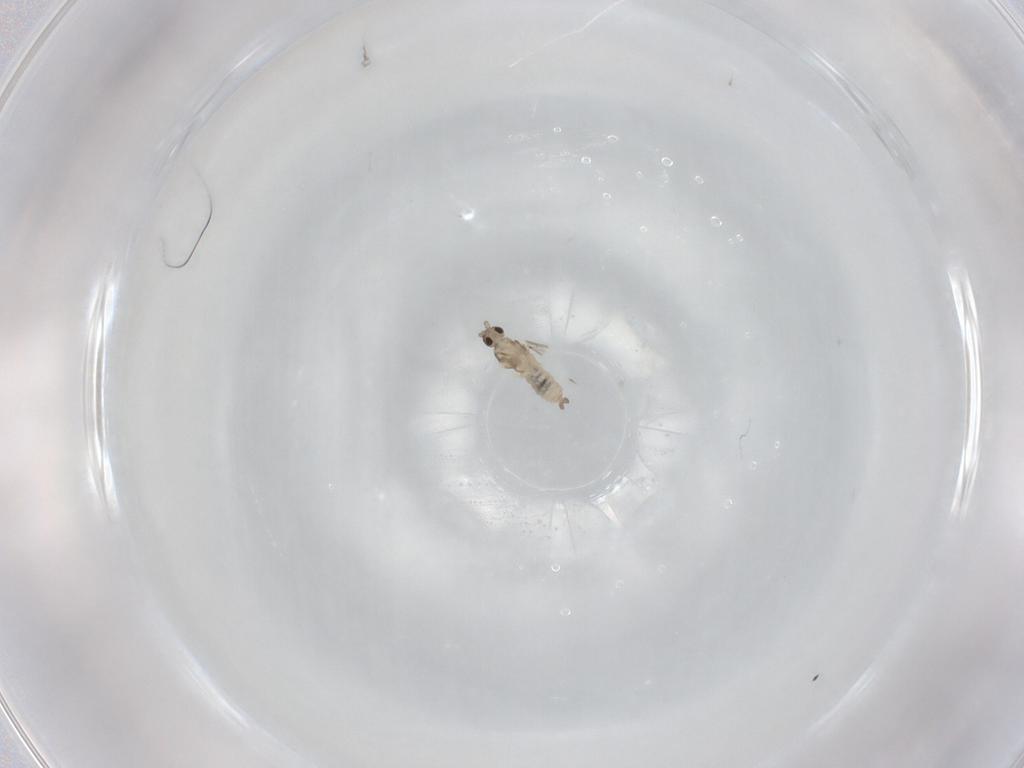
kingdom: Animalia
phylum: Arthropoda
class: Insecta
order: Diptera
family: Cecidomyiidae
